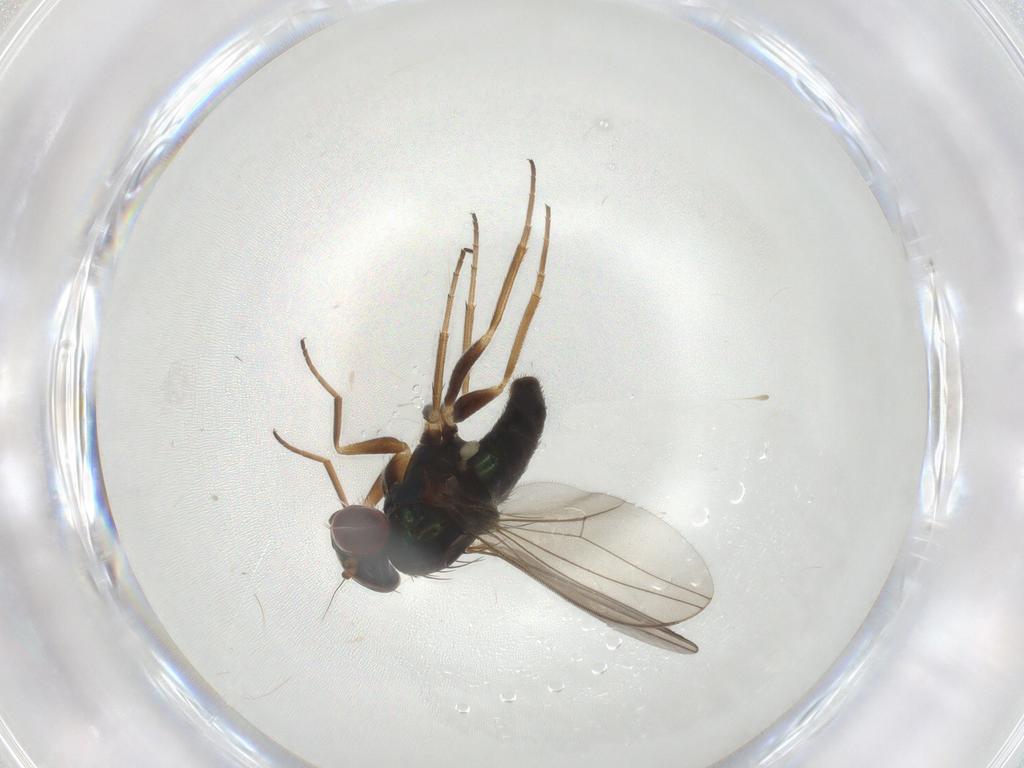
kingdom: Animalia
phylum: Arthropoda
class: Insecta
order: Diptera
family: Dolichopodidae
